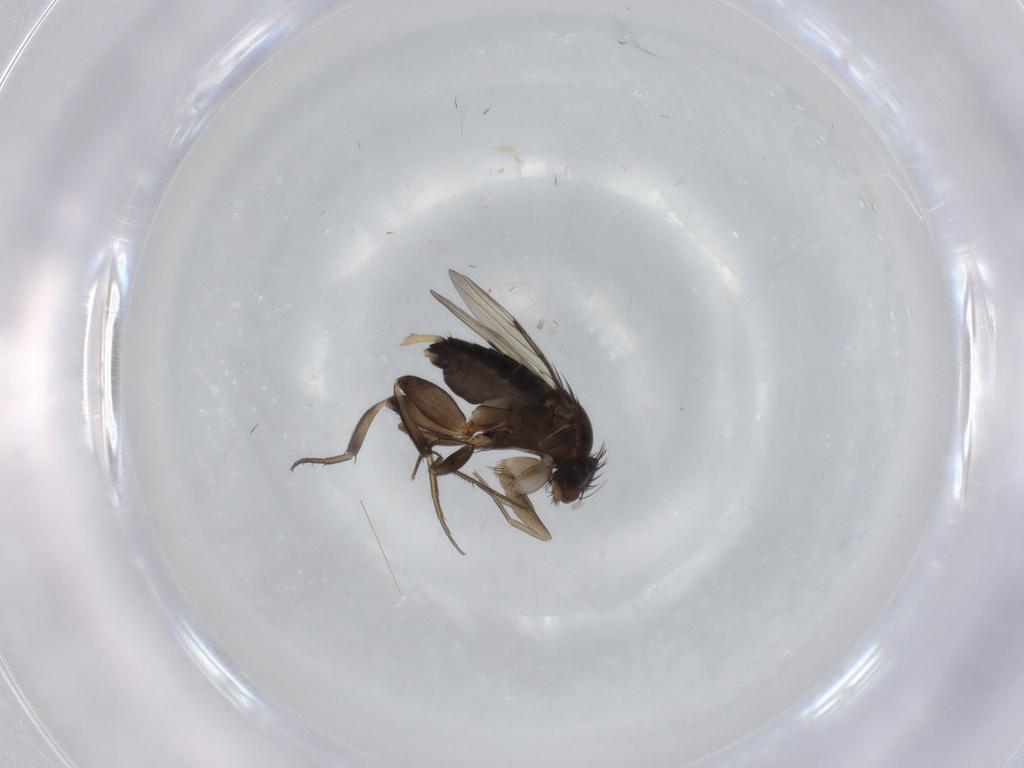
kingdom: Animalia
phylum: Arthropoda
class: Insecta
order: Diptera
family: Phoridae
